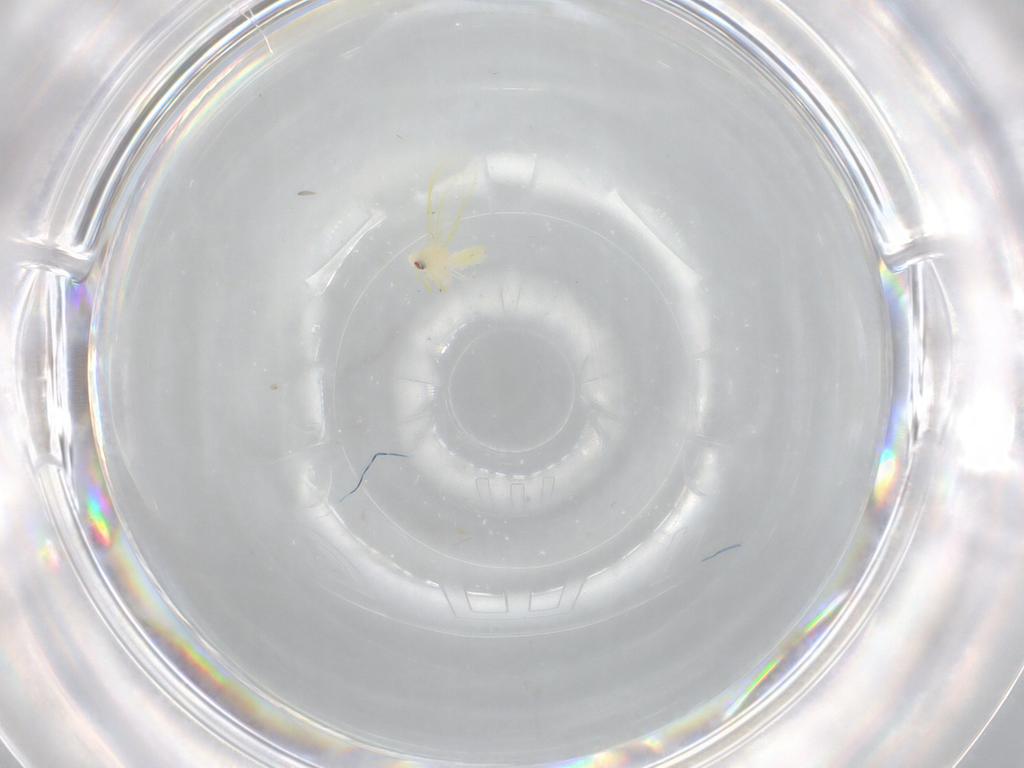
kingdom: Animalia
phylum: Arthropoda
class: Insecta
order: Hemiptera
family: Aleyrodidae
